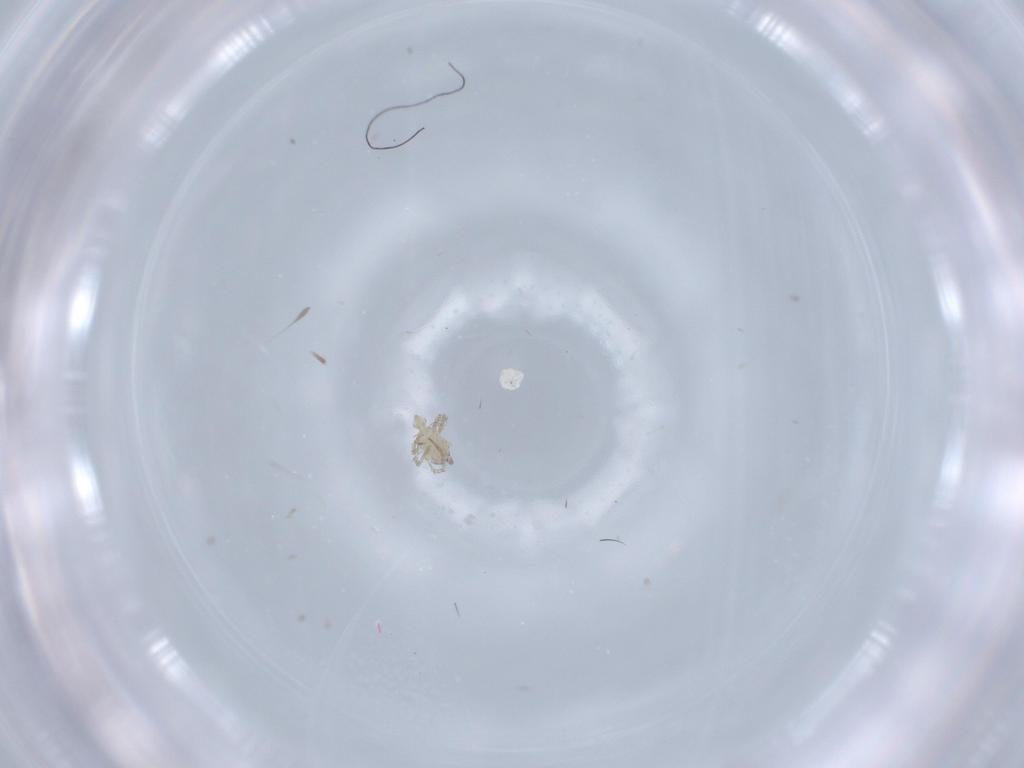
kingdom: Animalia
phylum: Arthropoda
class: Arachnida
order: Trombidiformes
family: Erythraeidae
